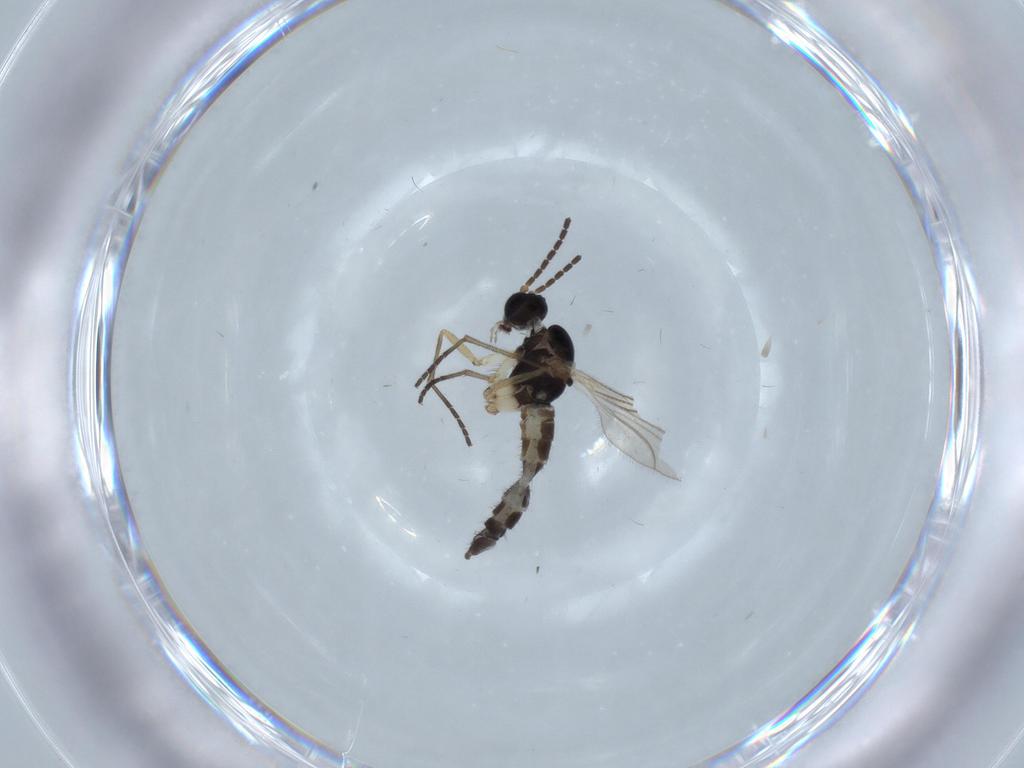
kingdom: Animalia
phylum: Arthropoda
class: Insecta
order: Diptera
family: Sciaridae
